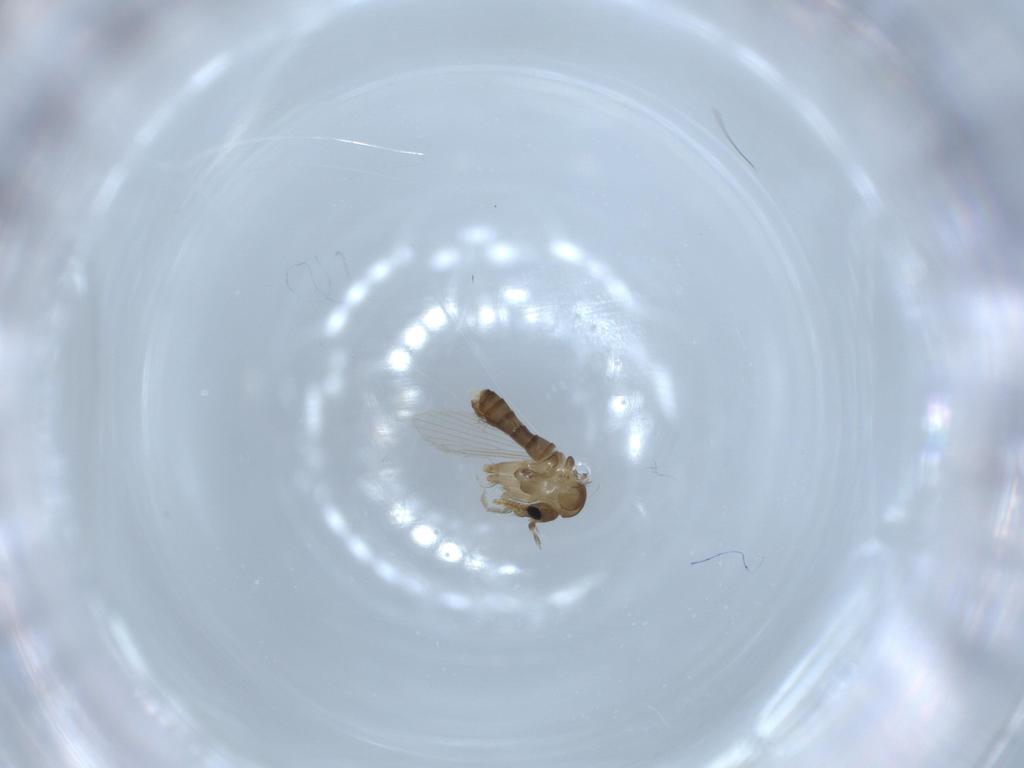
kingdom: Animalia
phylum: Arthropoda
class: Insecta
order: Diptera
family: Psychodidae
